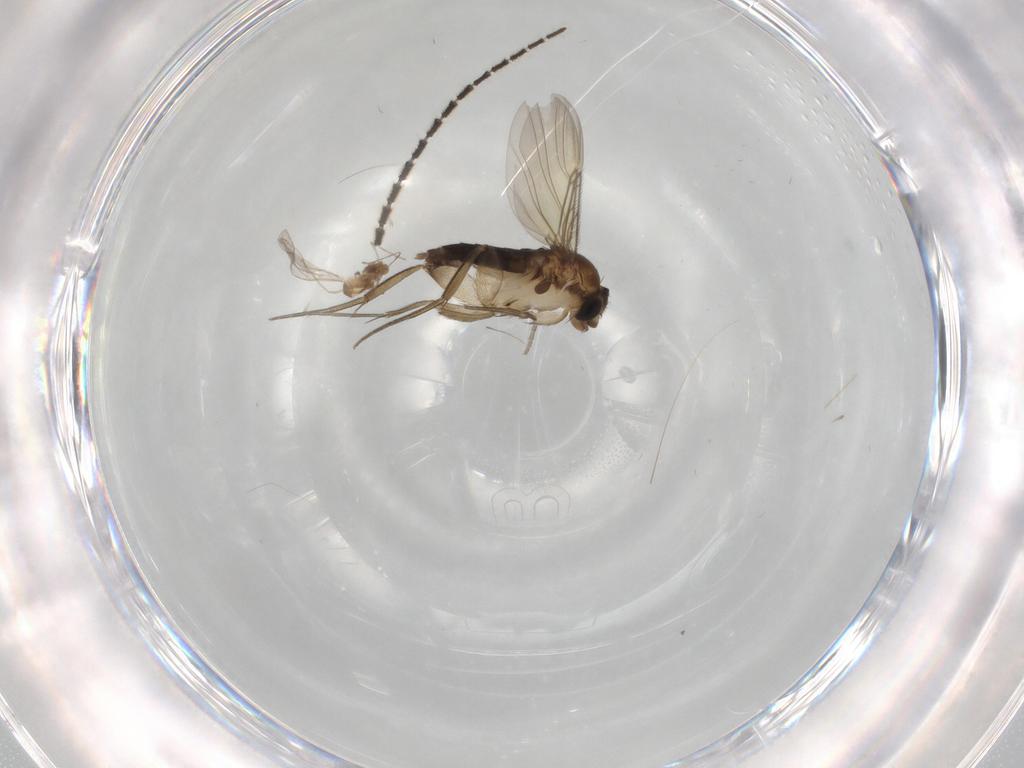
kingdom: Animalia
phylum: Arthropoda
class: Insecta
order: Diptera
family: Phoridae
